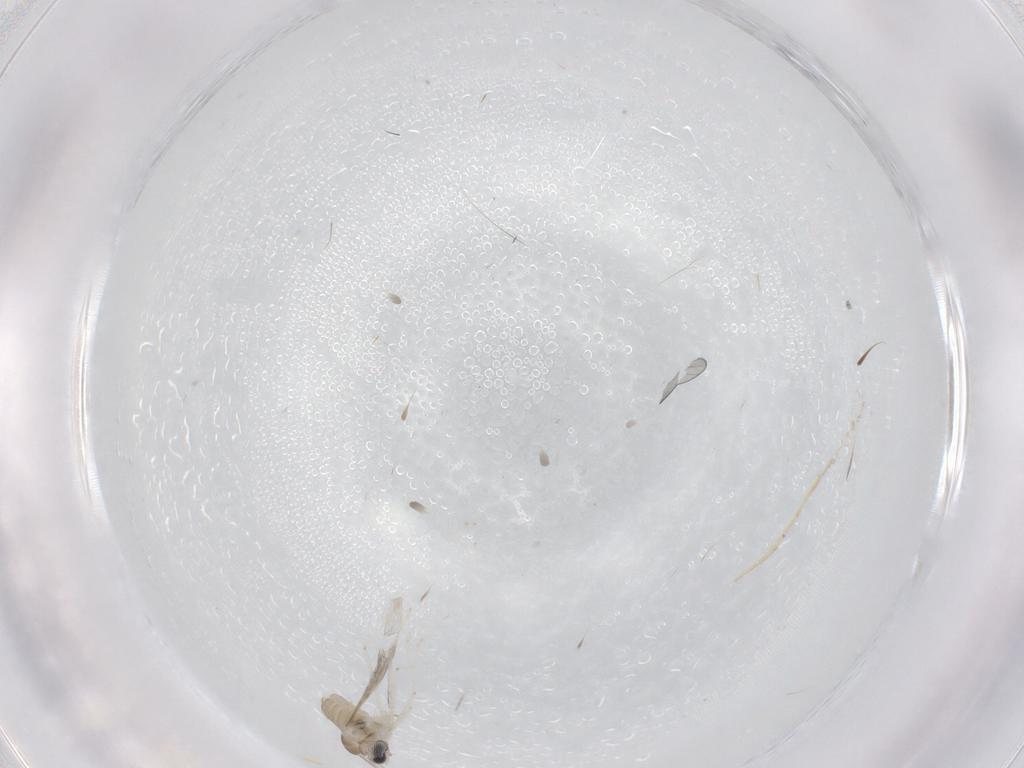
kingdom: Animalia
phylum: Arthropoda
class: Insecta
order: Diptera
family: Cecidomyiidae
